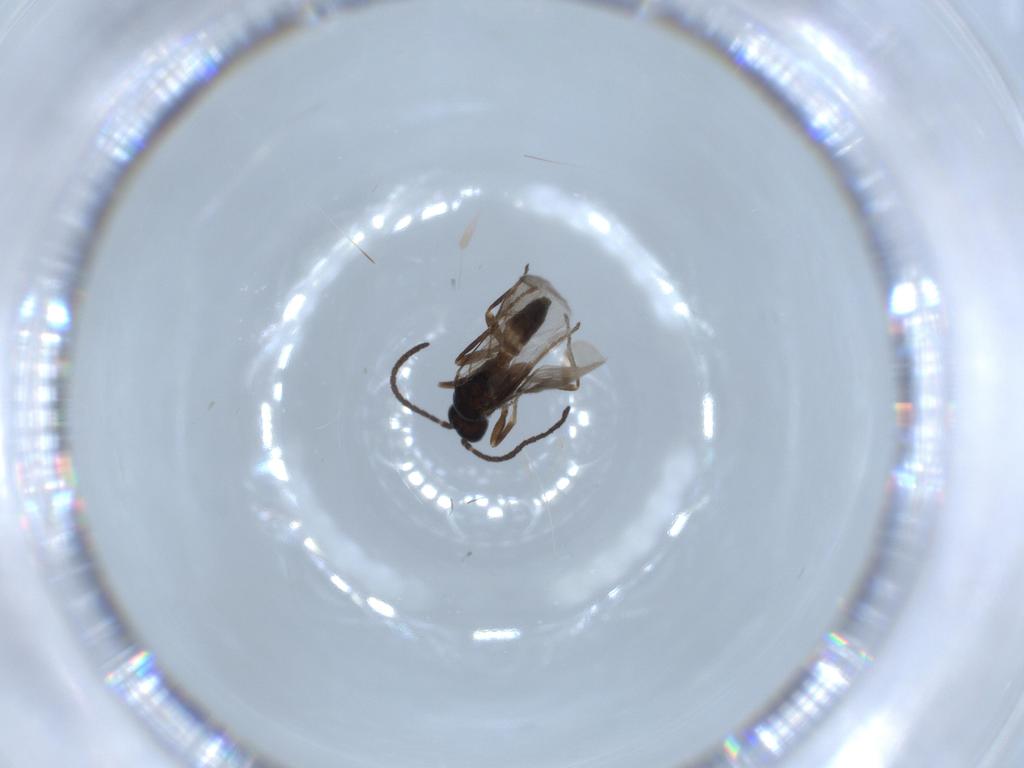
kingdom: Animalia
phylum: Arthropoda
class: Insecta
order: Hymenoptera
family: Braconidae
